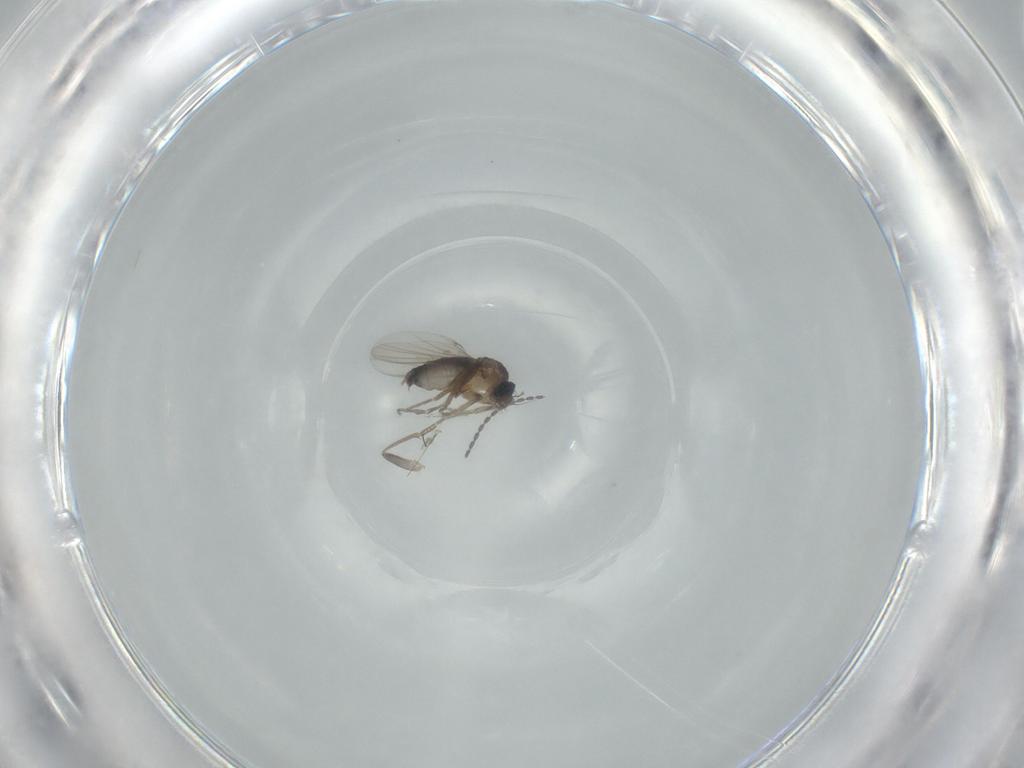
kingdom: Animalia
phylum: Arthropoda
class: Insecta
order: Diptera
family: Phoridae
